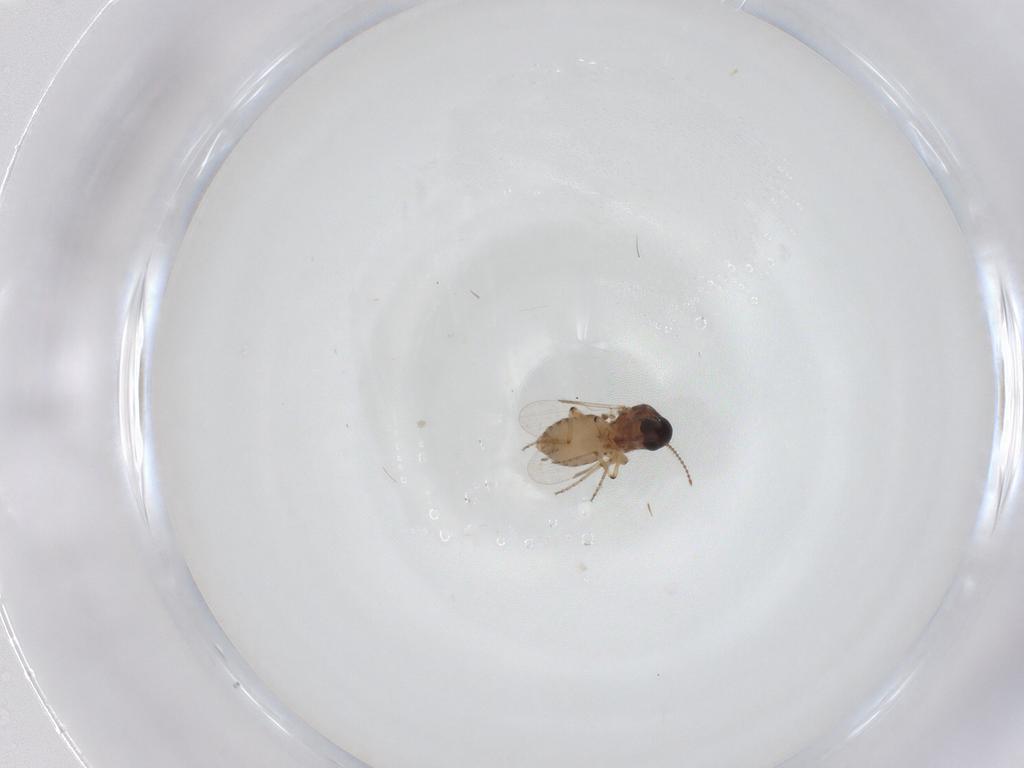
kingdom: Animalia
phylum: Arthropoda
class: Insecta
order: Diptera
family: Ceratopogonidae
